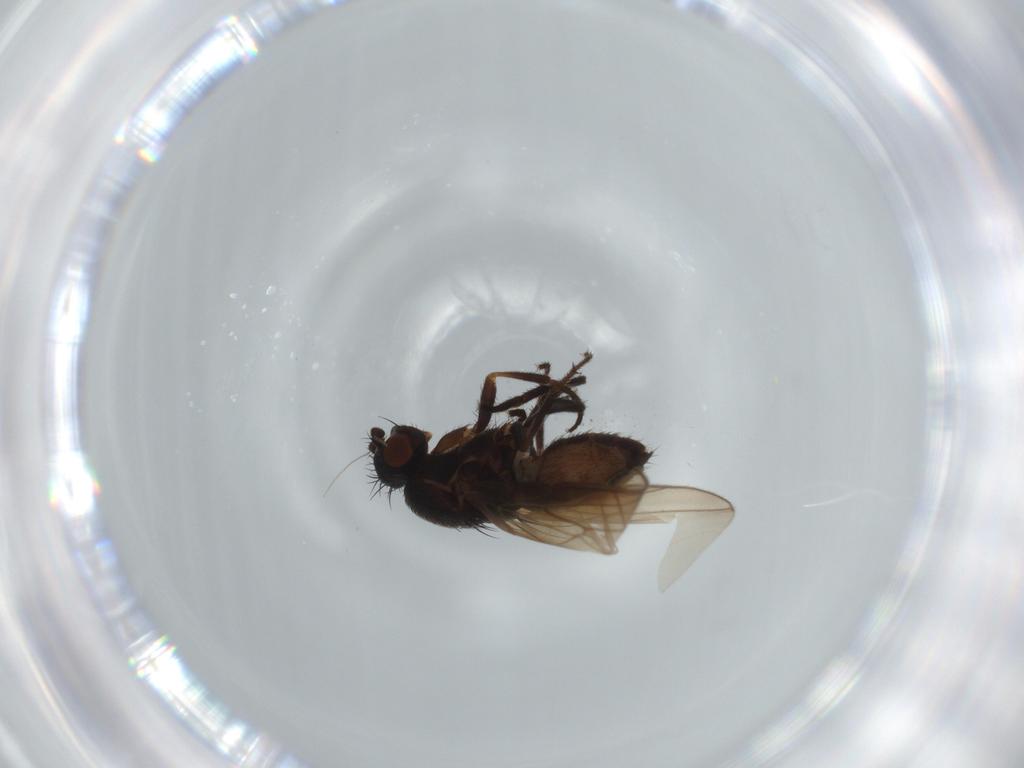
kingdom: Animalia
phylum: Arthropoda
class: Insecta
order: Diptera
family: Sphaeroceridae
